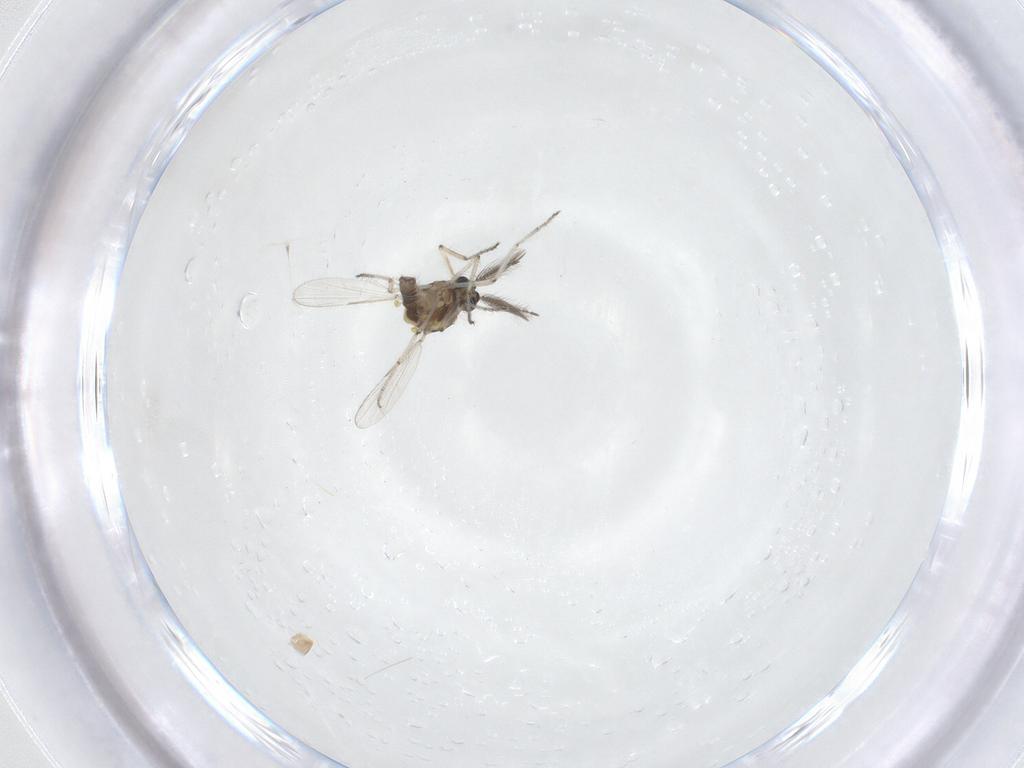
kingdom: Animalia
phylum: Arthropoda
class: Insecta
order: Diptera
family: Ceratopogonidae
